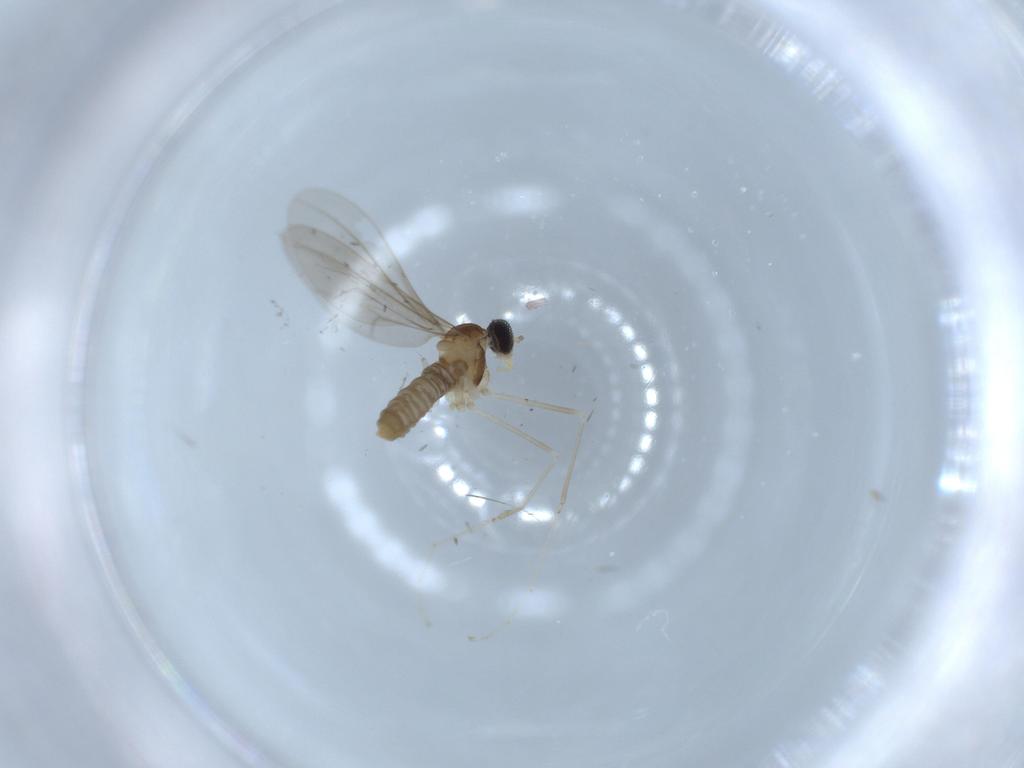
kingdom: Animalia
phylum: Arthropoda
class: Insecta
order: Diptera
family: Cecidomyiidae
